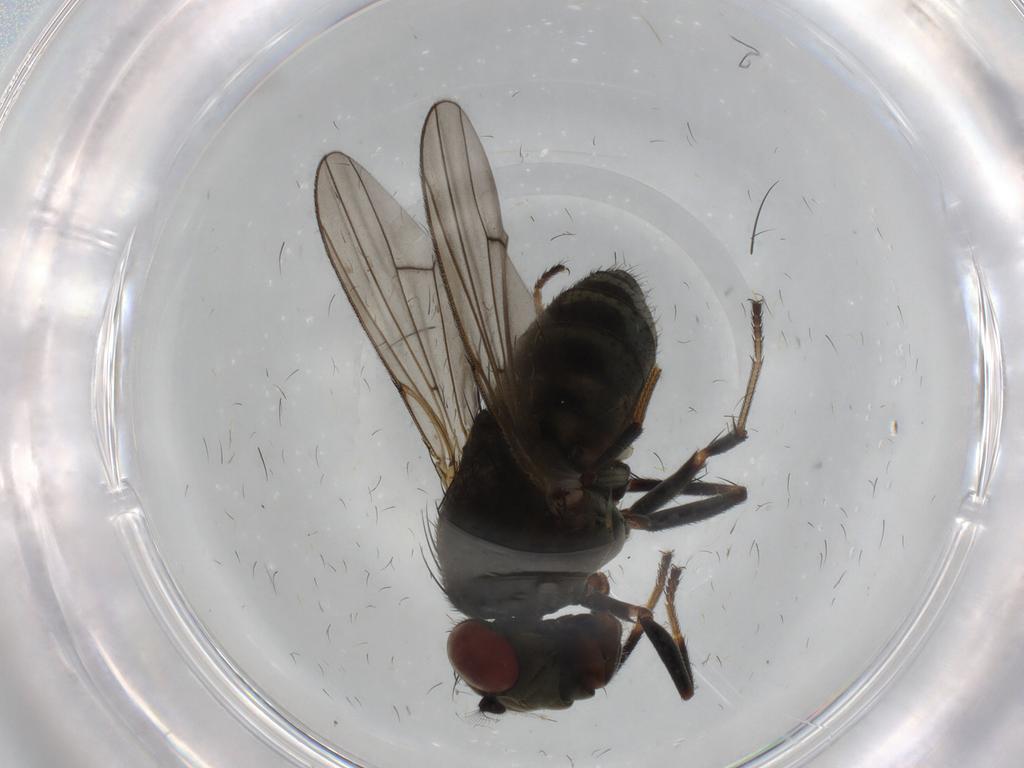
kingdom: Animalia
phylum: Arthropoda
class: Insecta
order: Diptera
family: Ephydridae
